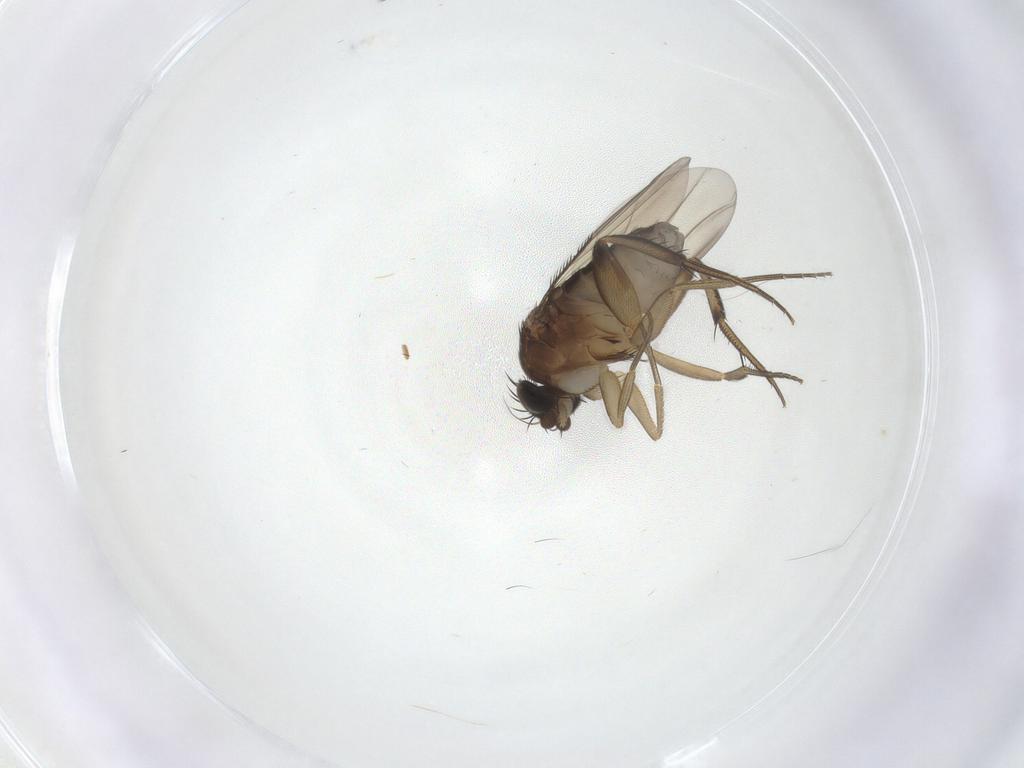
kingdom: Animalia
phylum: Arthropoda
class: Insecta
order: Diptera
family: Phoridae
